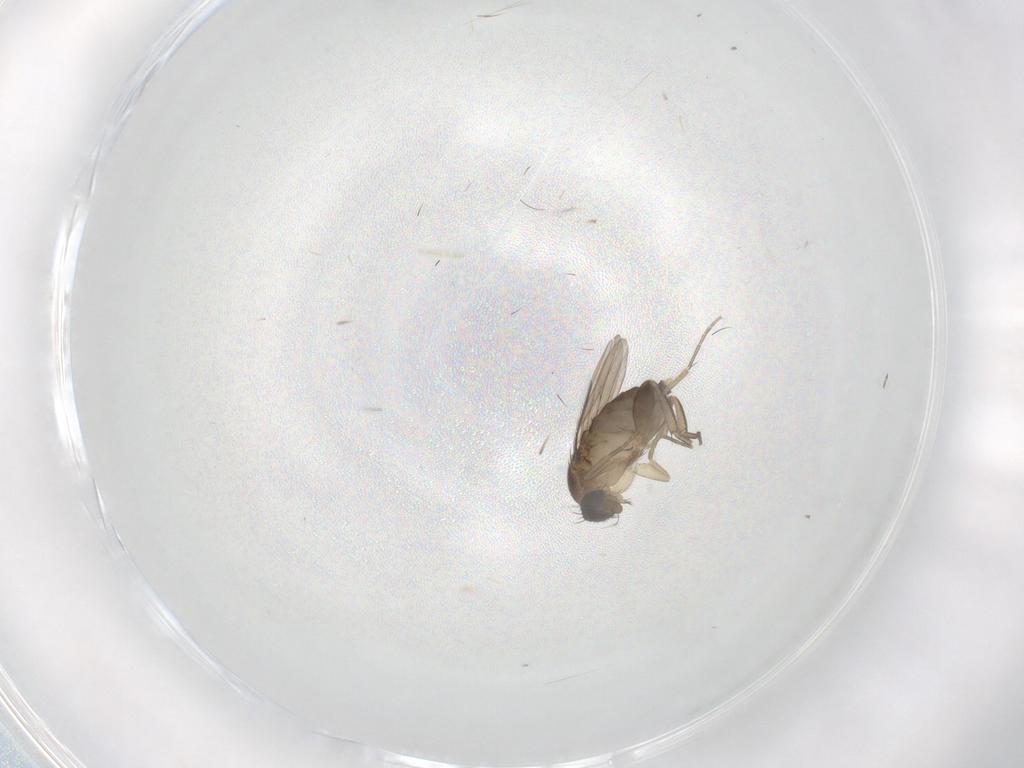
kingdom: Animalia
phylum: Arthropoda
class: Insecta
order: Diptera
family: Phoridae
